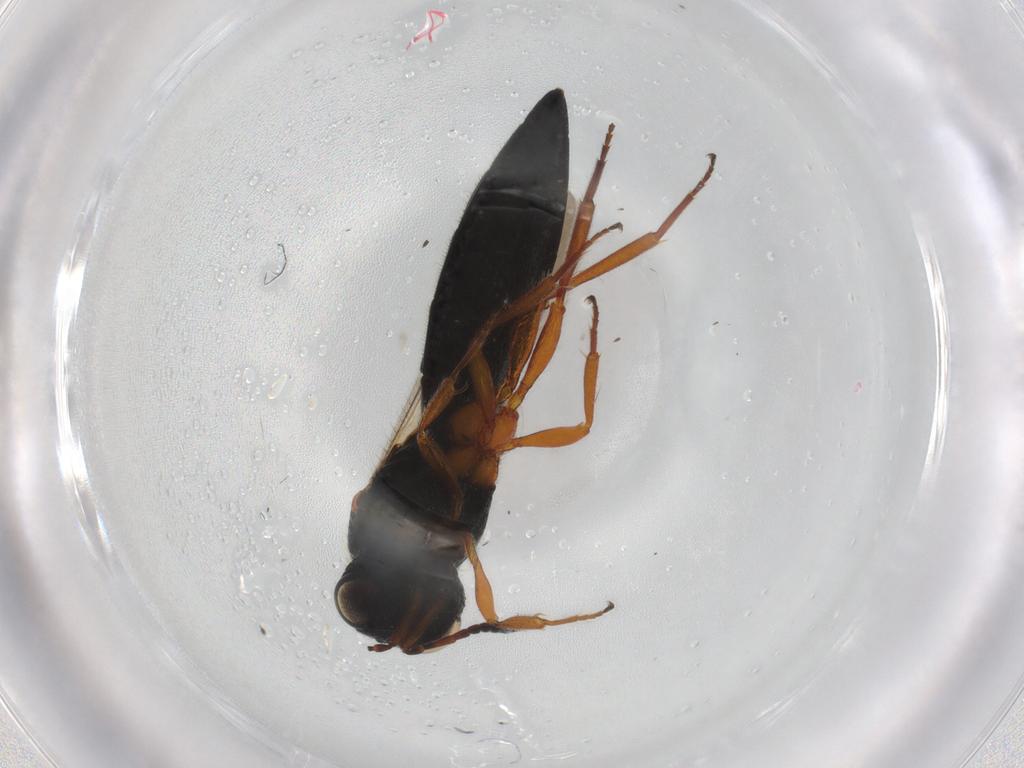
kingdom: Animalia
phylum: Arthropoda
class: Insecta
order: Hymenoptera
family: Scelionidae
